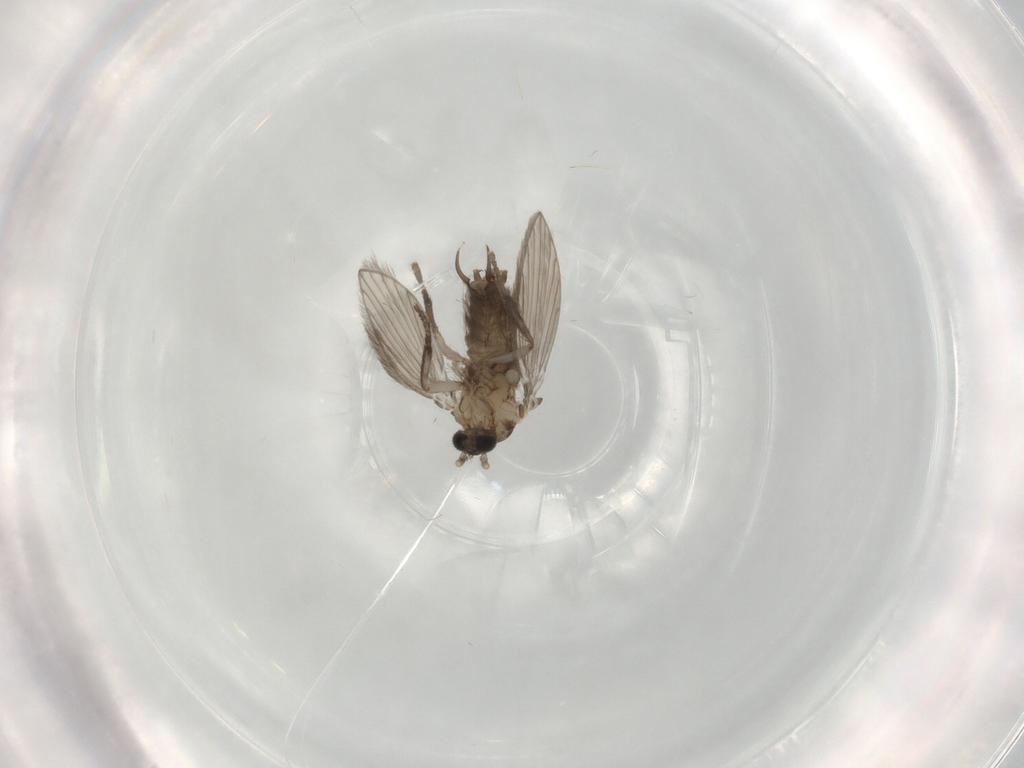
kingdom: Animalia
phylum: Arthropoda
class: Insecta
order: Diptera
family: Psychodidae
